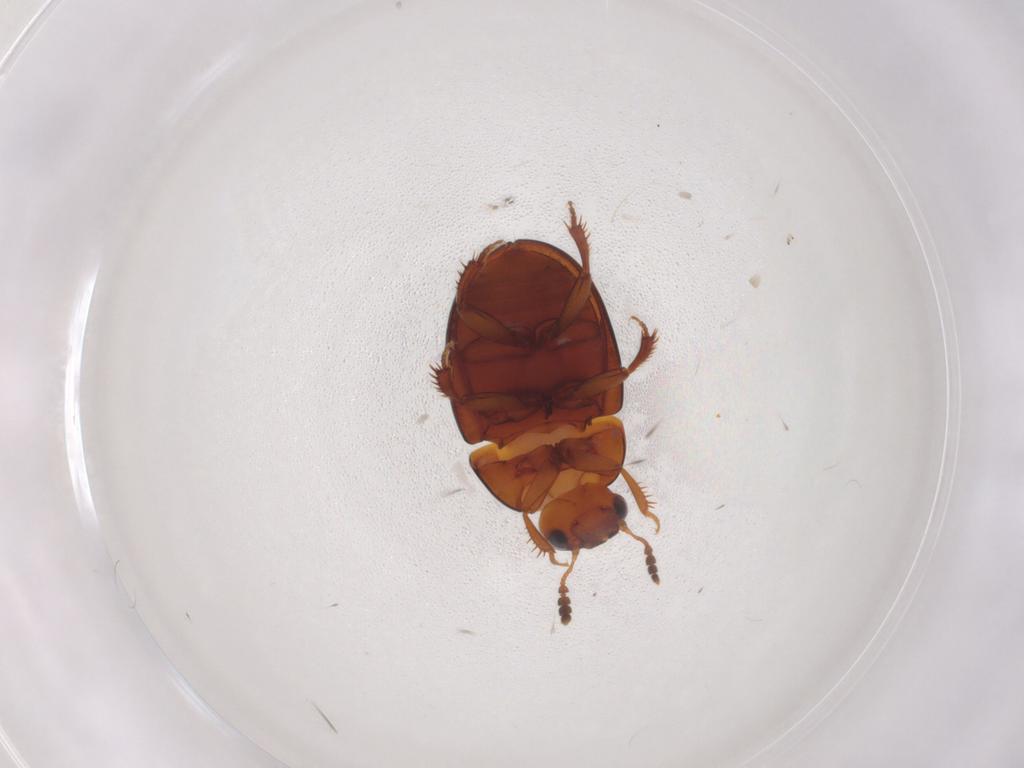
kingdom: Animalia
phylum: Arthropoda
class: Insecta
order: Coleoptera
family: Leiodidae
